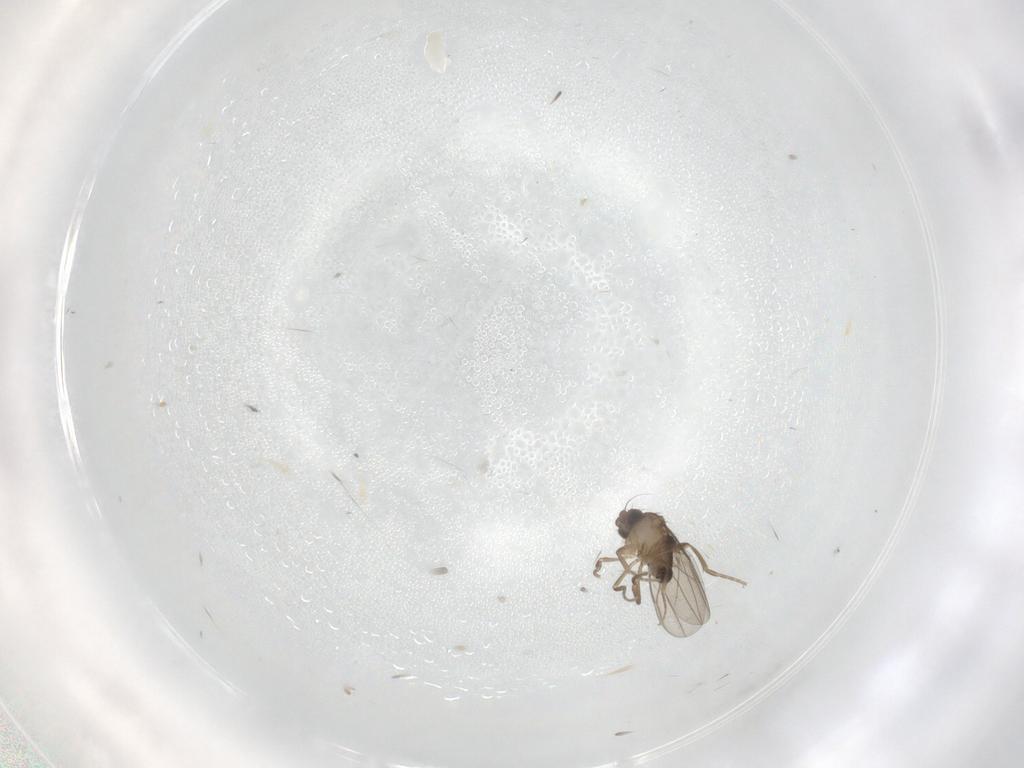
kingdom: Animalia
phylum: Arthropoda
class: Insecta
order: Diptera
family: Phoridae
